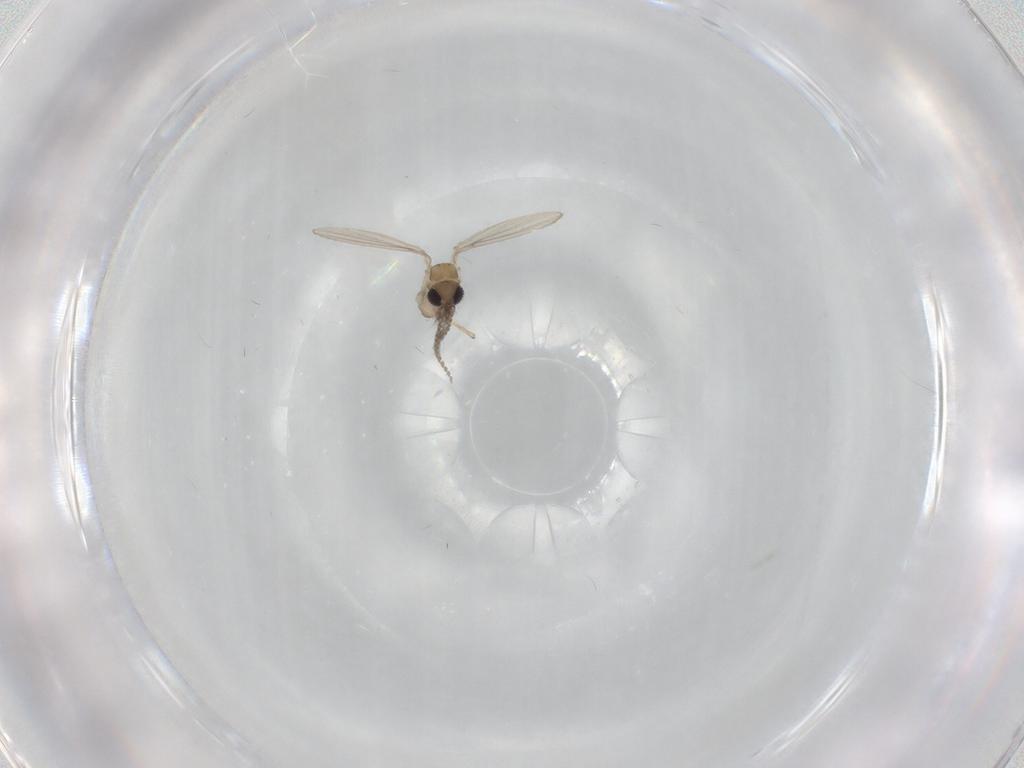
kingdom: Animalia
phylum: Arthropoda
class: Insecta
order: Diptera
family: Psychodidae
